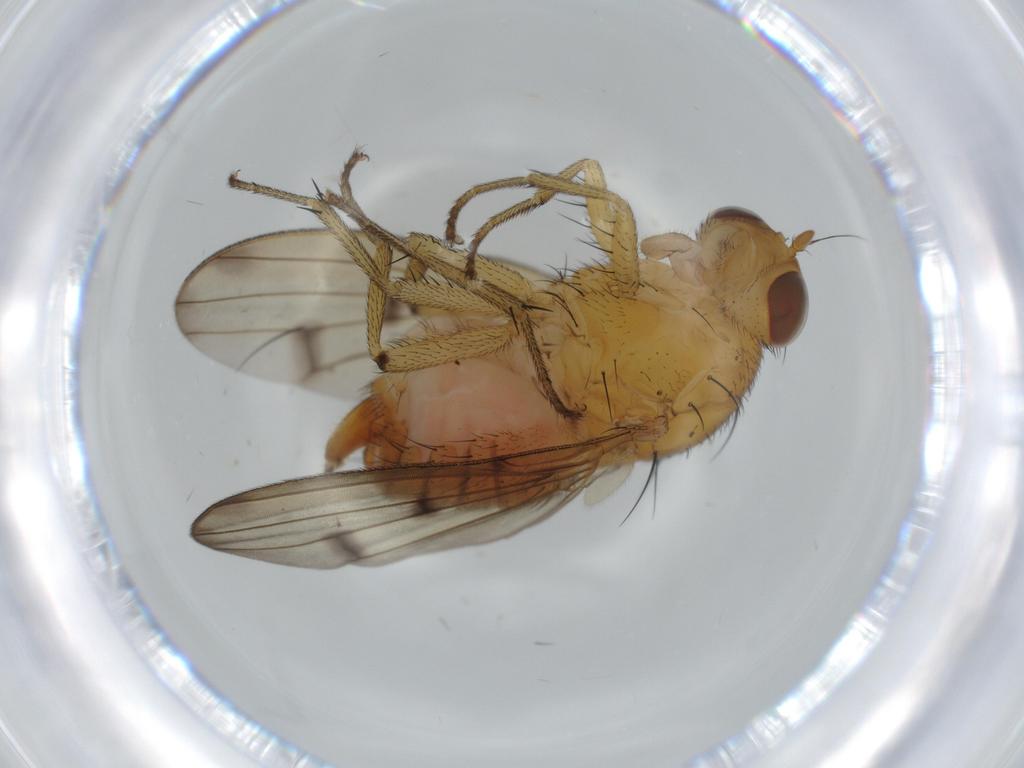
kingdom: Animalia
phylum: Arthropoda
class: Insecta
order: Diptera
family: Lauxaniidae
